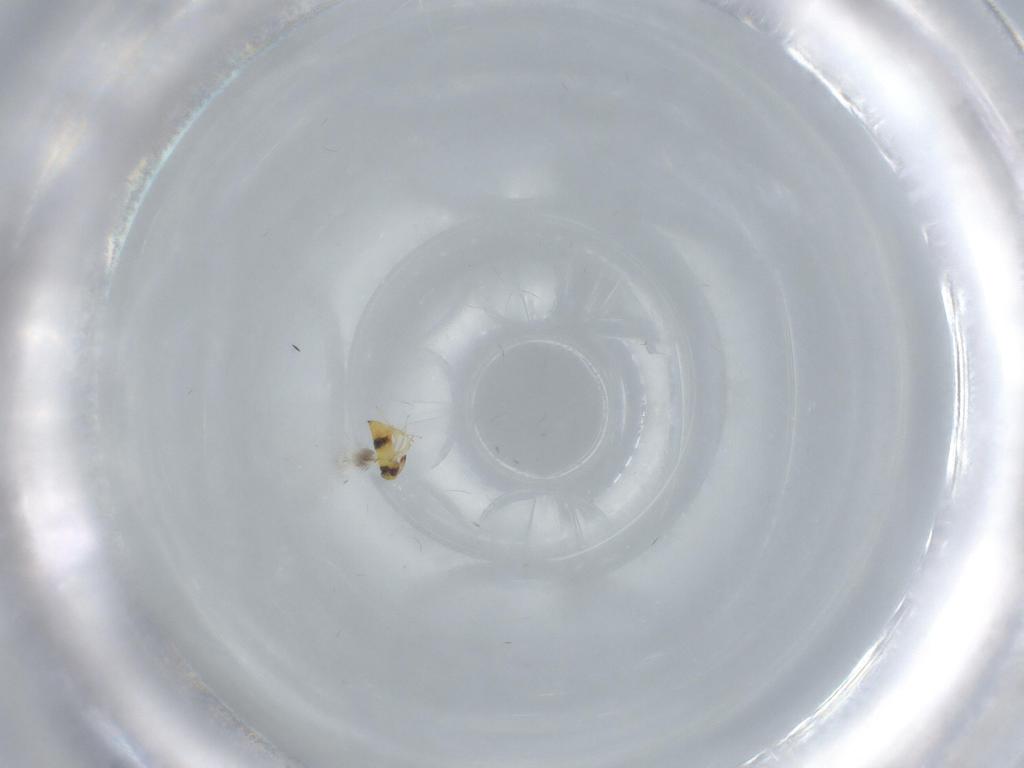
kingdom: Animalia
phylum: Arthropoda
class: Insecta
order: Hymenoptera
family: Signiphoridae
